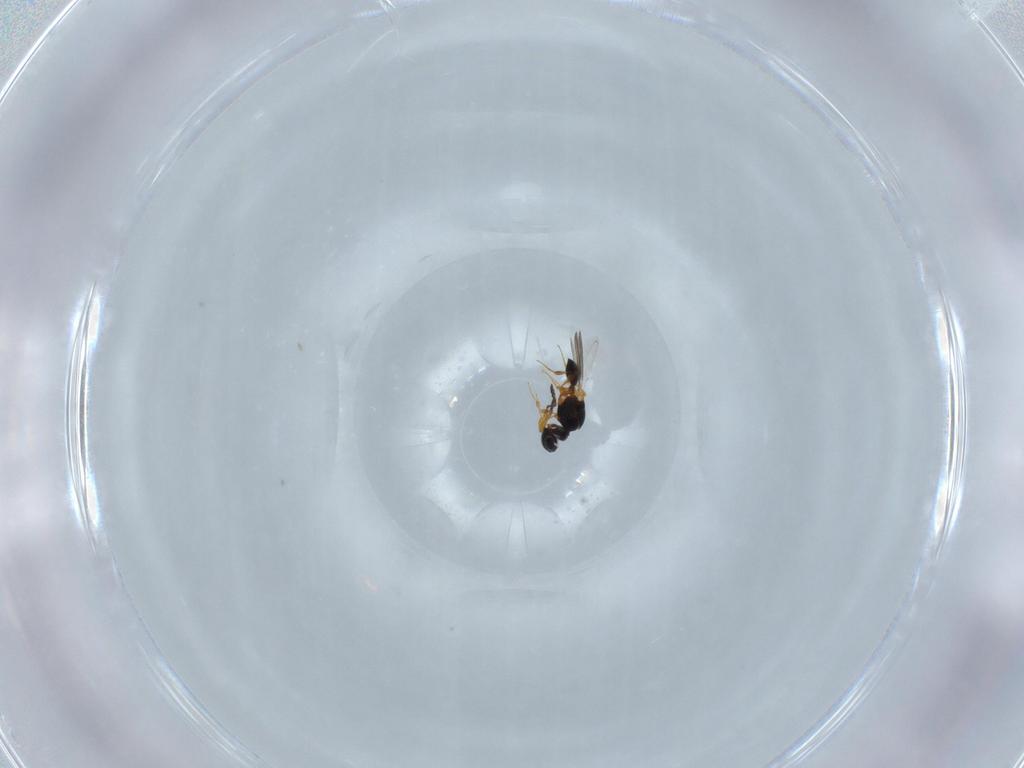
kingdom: Animalia
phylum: Arthropoda
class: Insecta
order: Hymenoptera
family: Platygastridae
